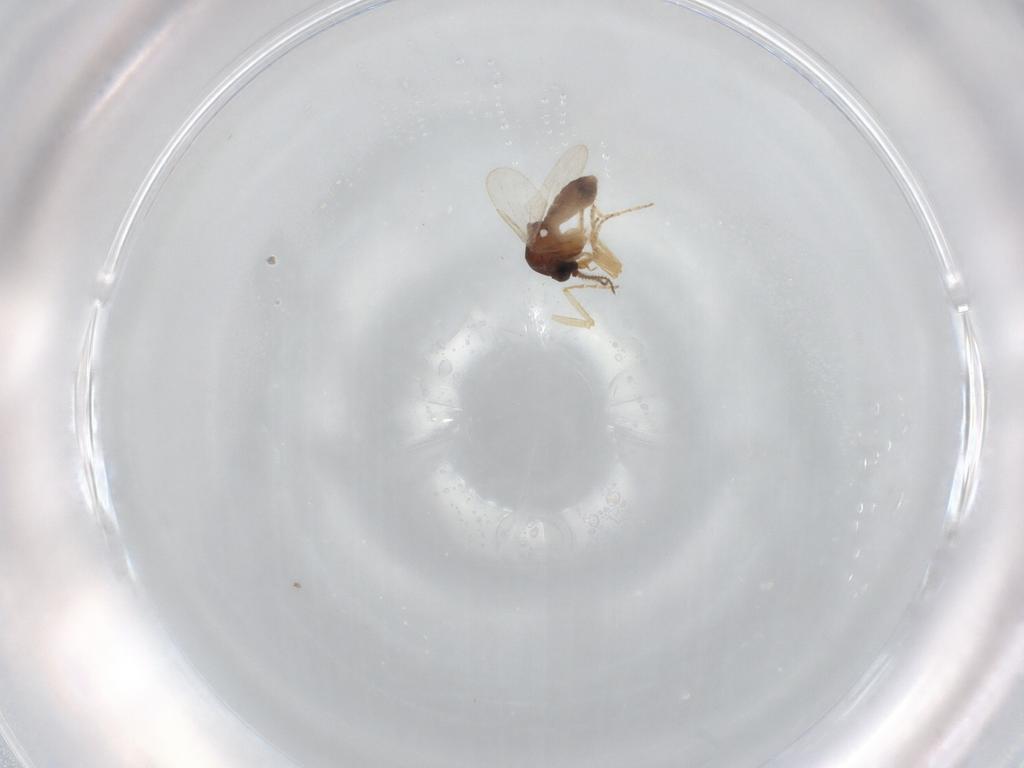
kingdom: Animalia
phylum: Arthropoda
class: Insecta
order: Diptera
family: Ceratopogonidae
